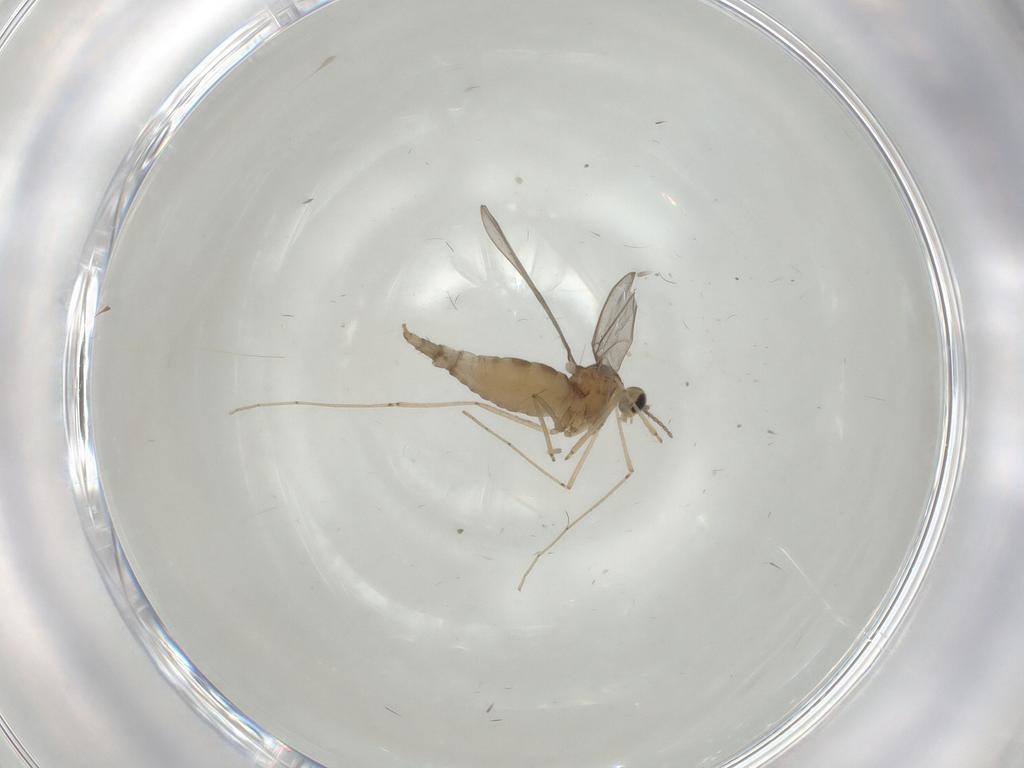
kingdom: Animalia
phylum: Arthropoda
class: Insecta
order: Diptera
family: Cecidomyiidae
